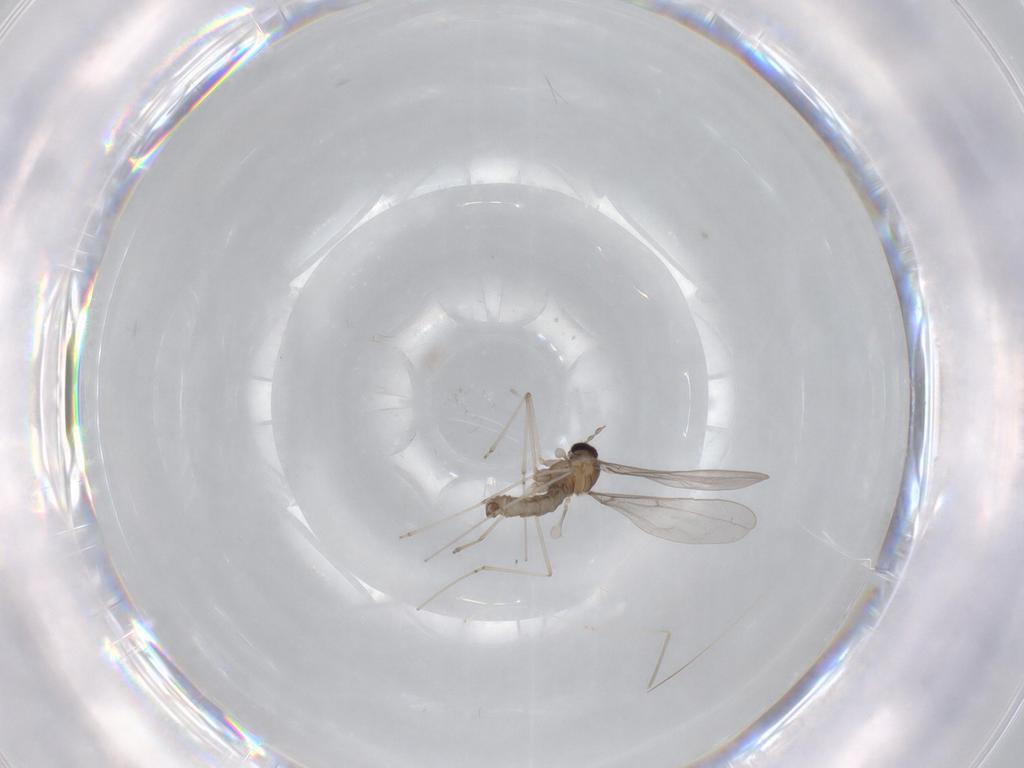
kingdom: Animalia
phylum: Arthropoda
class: Insecta
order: Diptera
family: Cecidomyiidae
